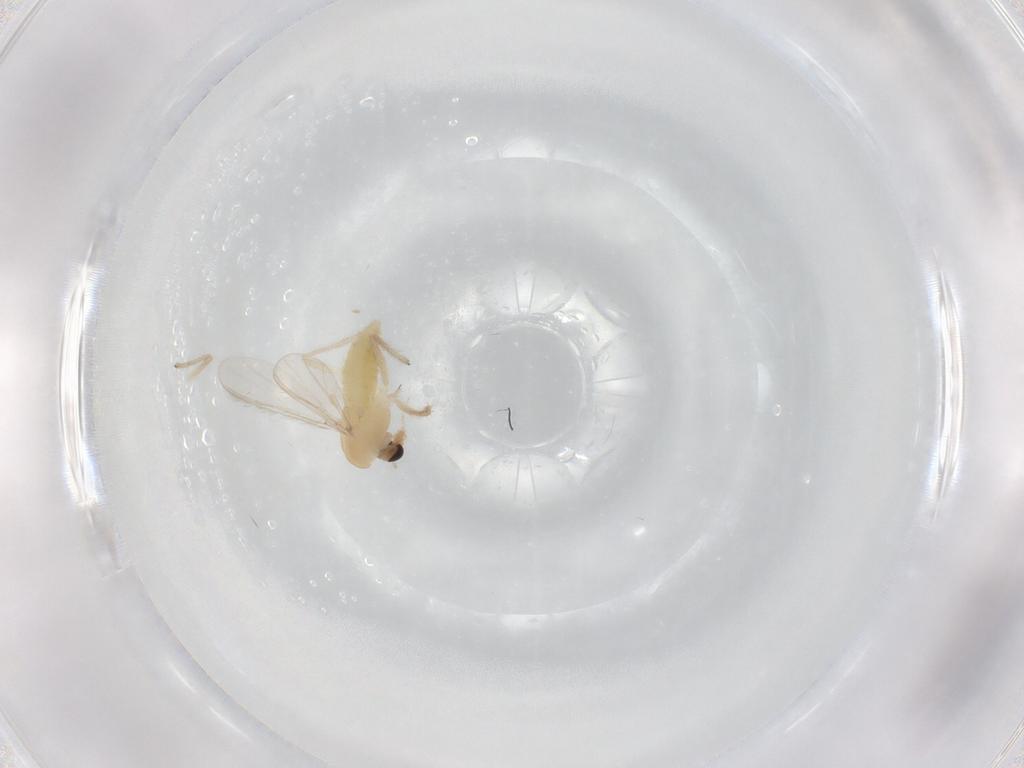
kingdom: Animalia
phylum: Arthropoda
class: Insecta
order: Diptera
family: Chironomidae
